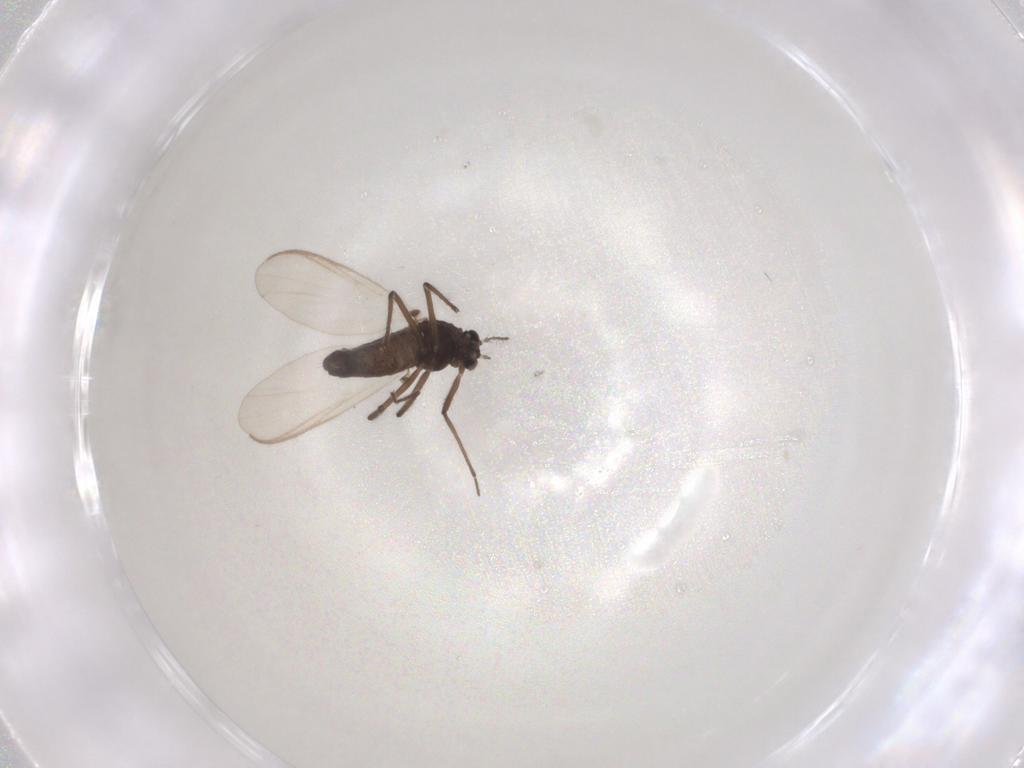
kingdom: Animalia
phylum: Arthropoda
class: Insecta
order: Diptera
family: Chironomidae
